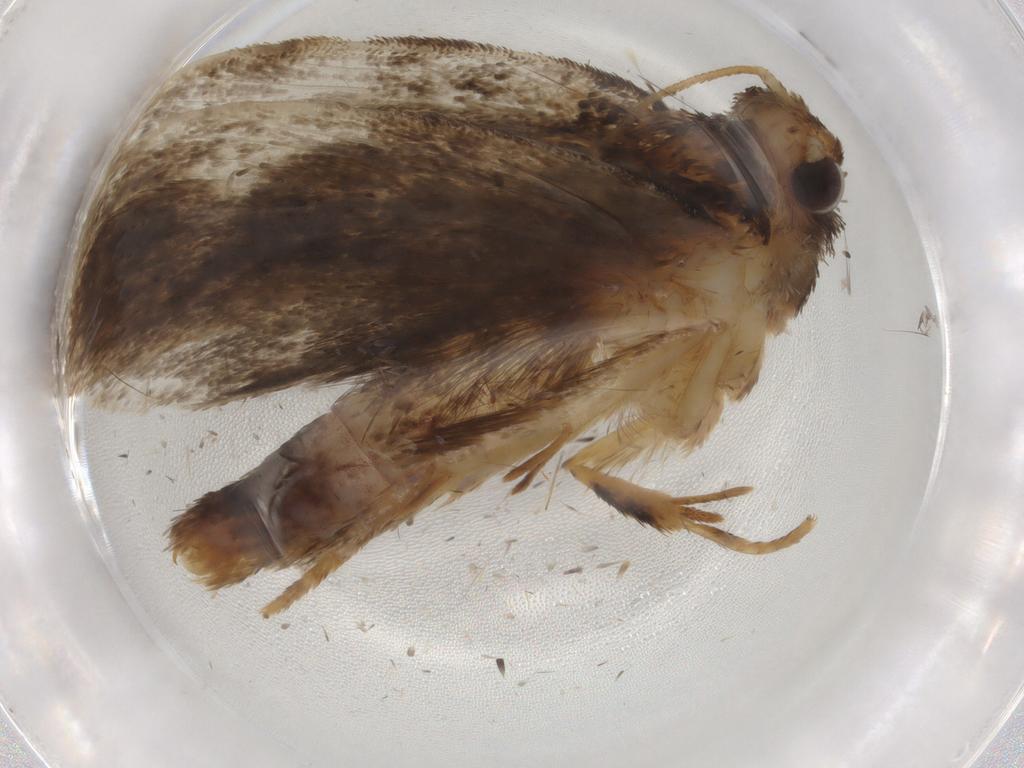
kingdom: Animalia
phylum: Arthropoda
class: Insecta
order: Lepidoptera
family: Tineidae
